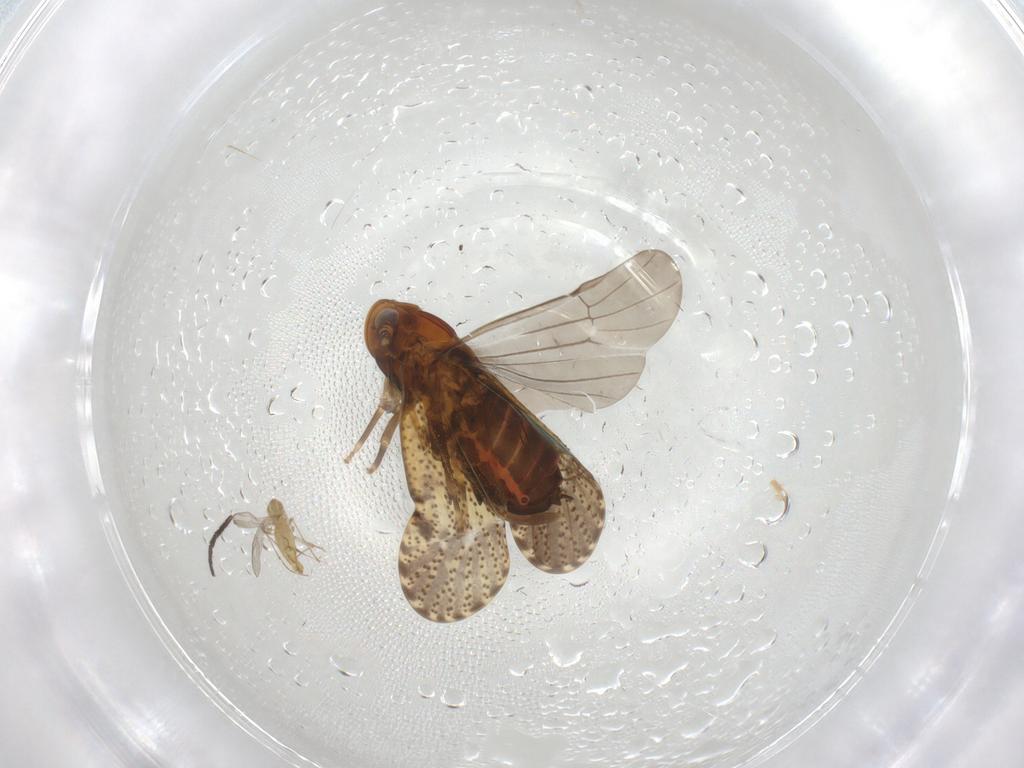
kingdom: Animalia
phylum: Arthropoda
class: Insecta
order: Diptera
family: Chironomidae
